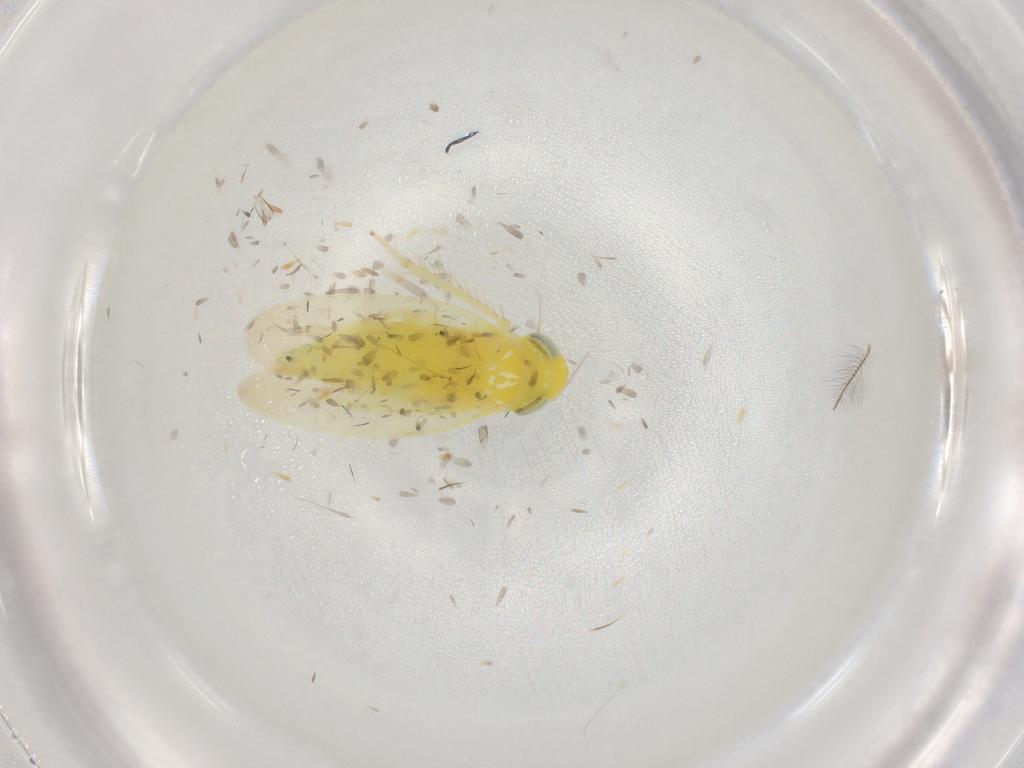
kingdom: Animalia
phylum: Arthropoda
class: Insecta
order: Hemiptera
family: Cicadellidae
